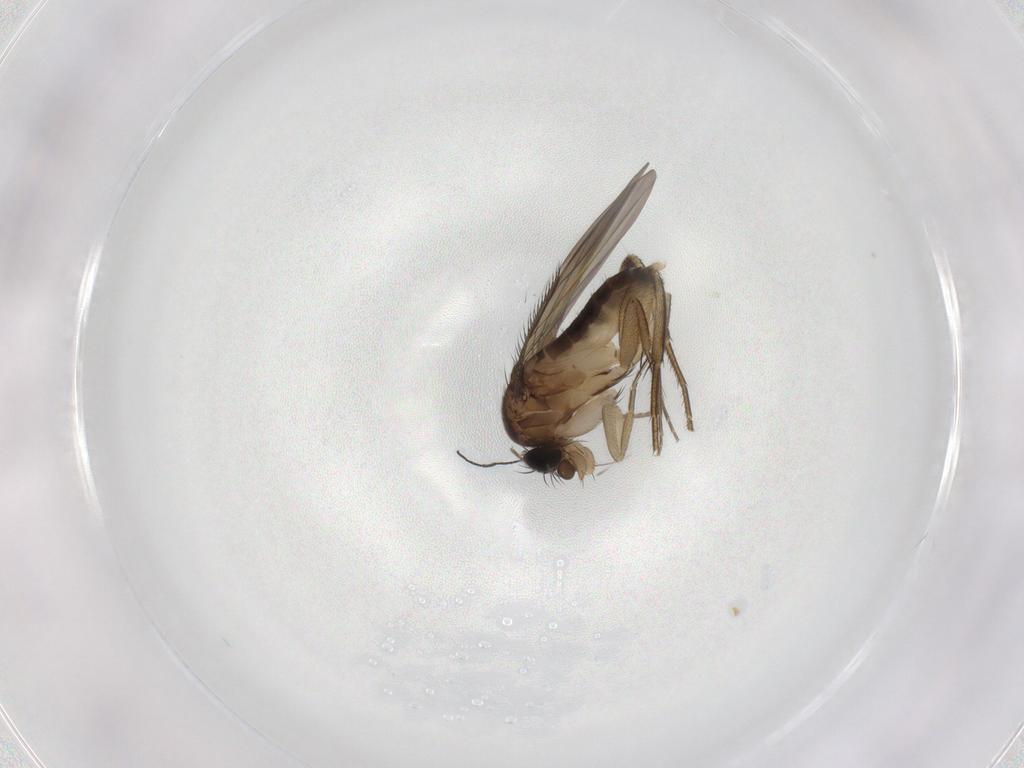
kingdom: Animalia
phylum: Arthropoda
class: Insecta
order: Diptera
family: Phoridae
